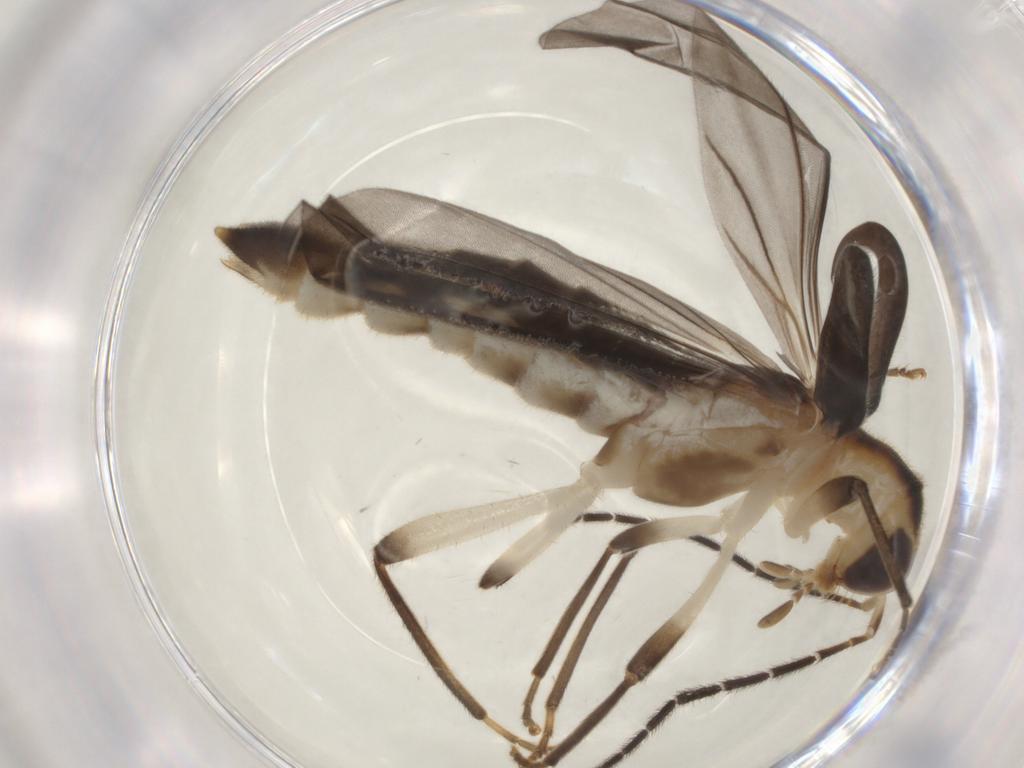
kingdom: Animalia
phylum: Arthropoda
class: Insecta
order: Coleoptera
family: Cantharidae
